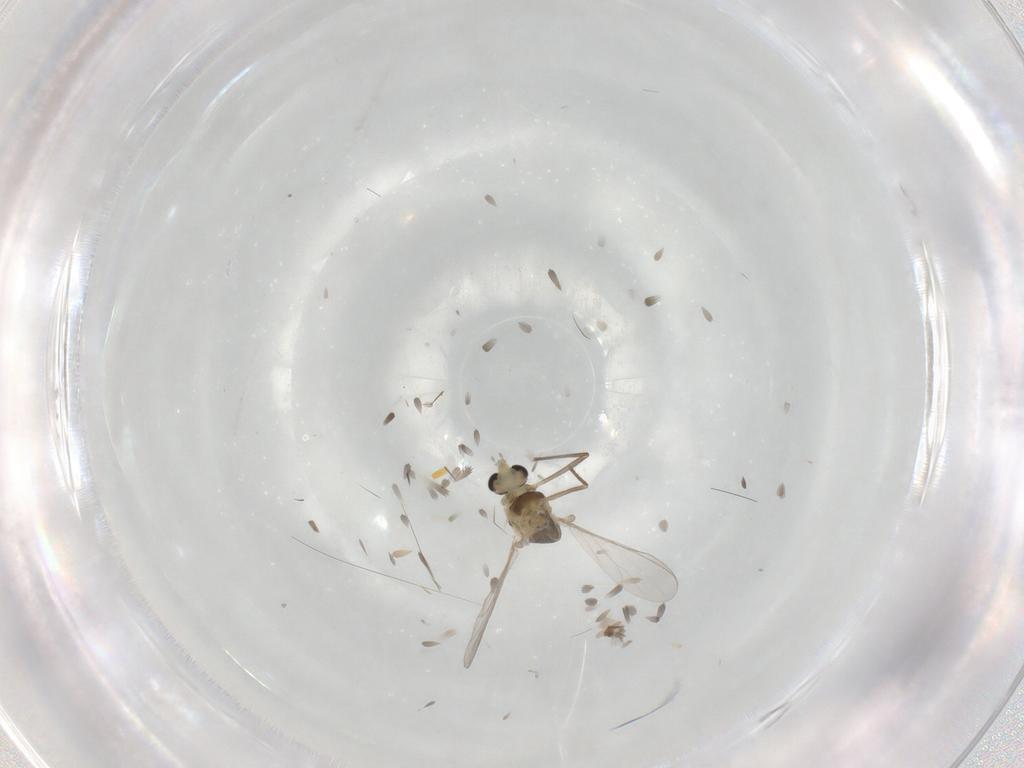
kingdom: Animalia
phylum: Arthropoda
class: Insecta
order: Diptera
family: Chironomidae
